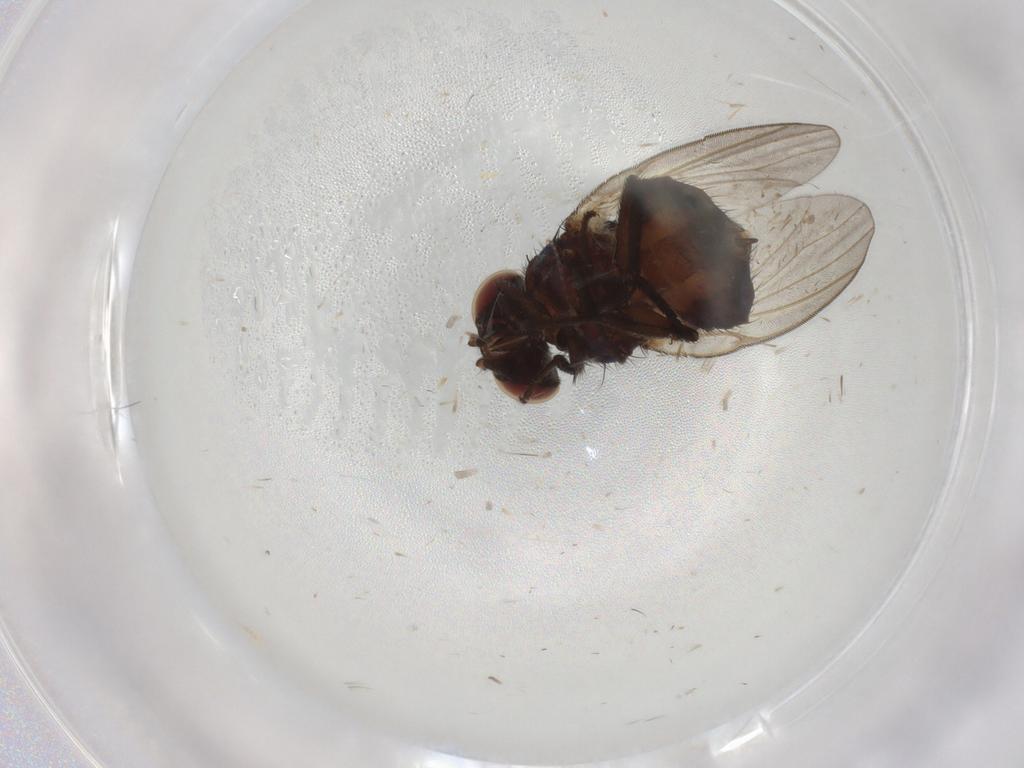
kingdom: Animalia
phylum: Arthropoda
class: Insecta
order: Diptera
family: Lonchaeidae
